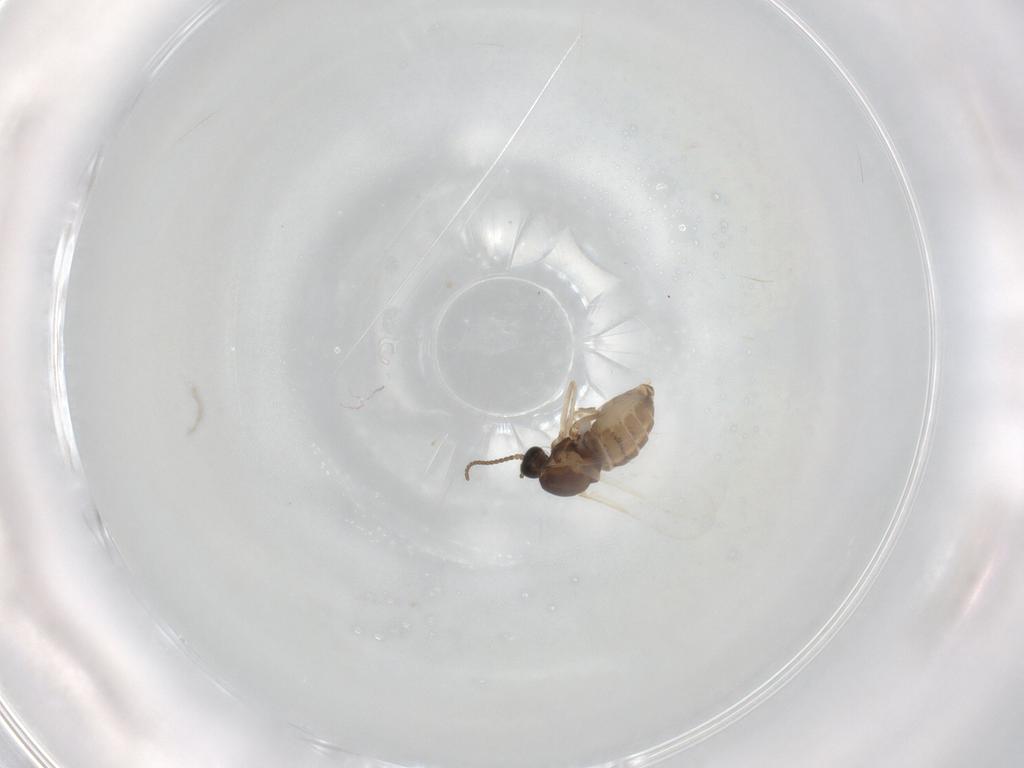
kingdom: Animalia
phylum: Arthropoda
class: Insecta
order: Diptera
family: Cecidomyiidae
